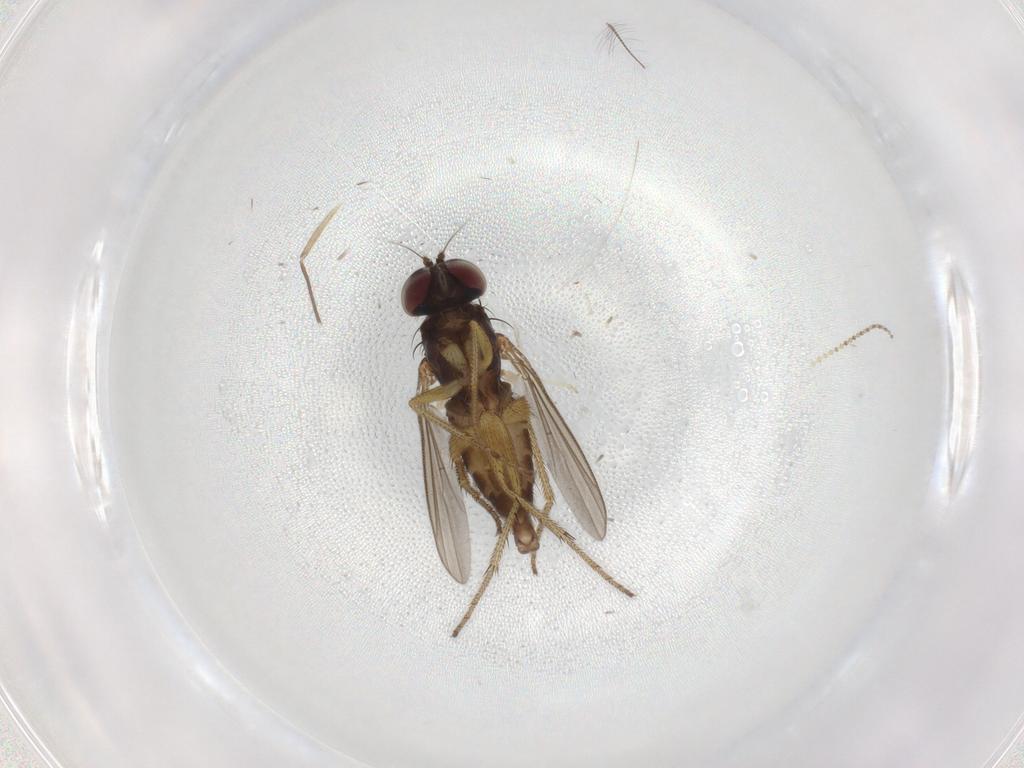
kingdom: Animalia
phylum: Arthropoda
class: Insecta
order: Diptera
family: Dolichopodidae
